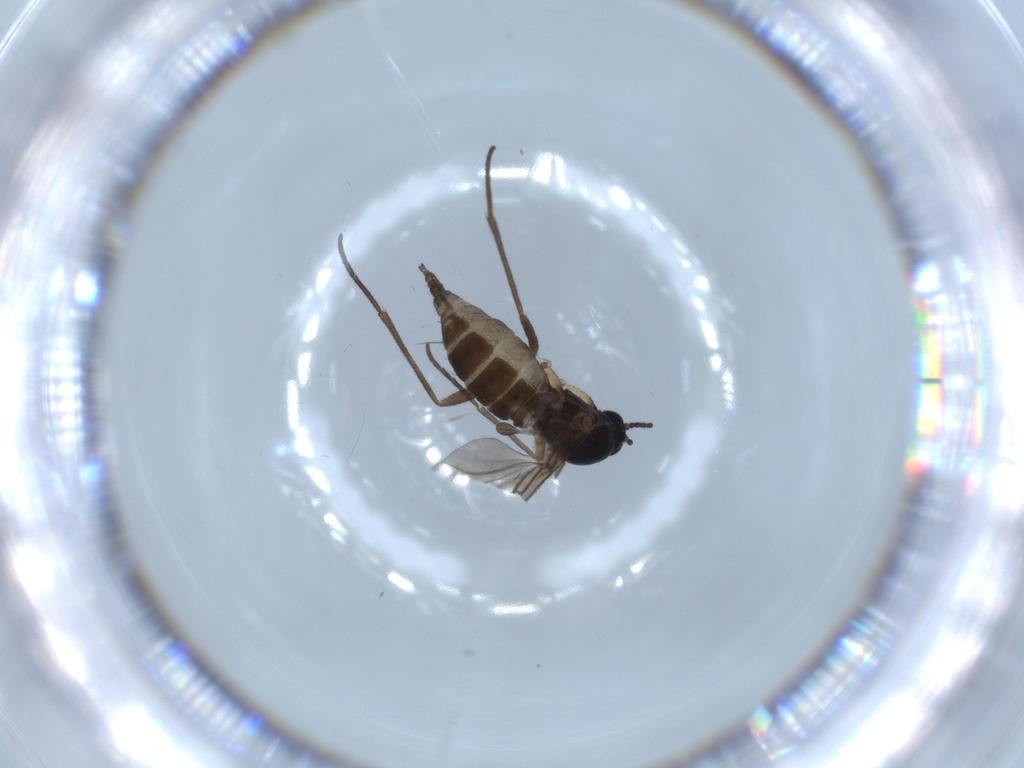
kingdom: Animalia
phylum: Arthropoda
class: Insecta
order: Diptera
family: Sciaridae
